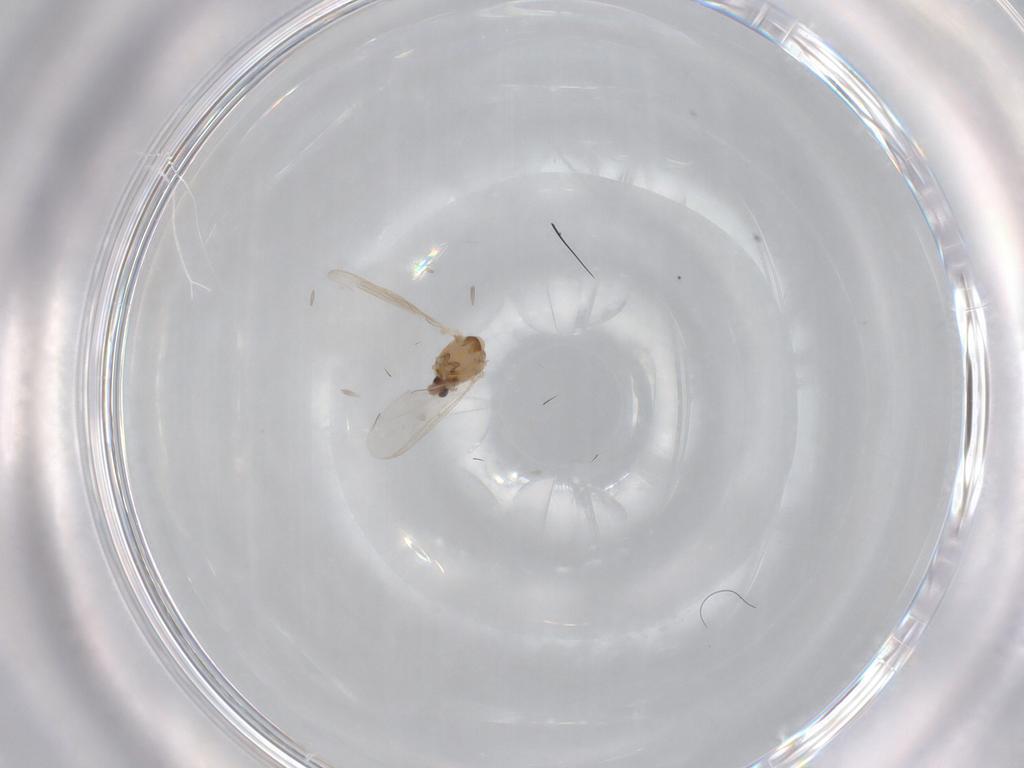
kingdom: Animalia
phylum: Arthropoda
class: Insecta
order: Diptera
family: Chironomidae
